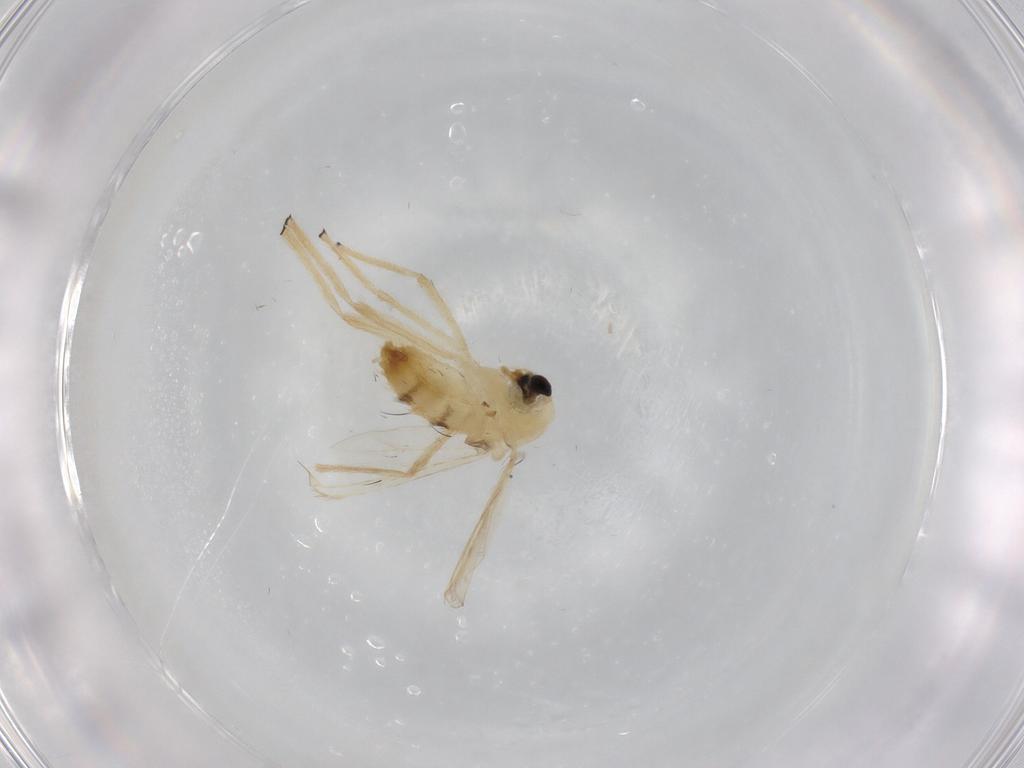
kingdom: Animalia
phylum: Arthropoda
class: Insecta
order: Diptera
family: Chironomidae
